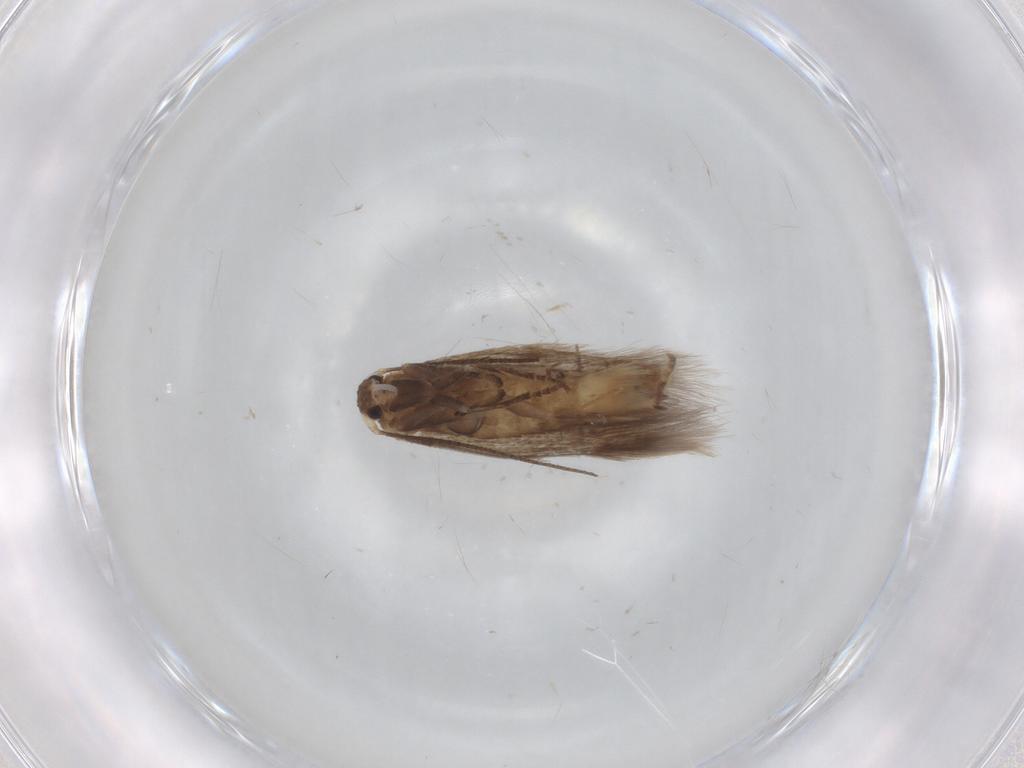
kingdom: Animalia
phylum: Arthropoda
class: Insecta
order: Lepidoptera
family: Bucculatricidae
